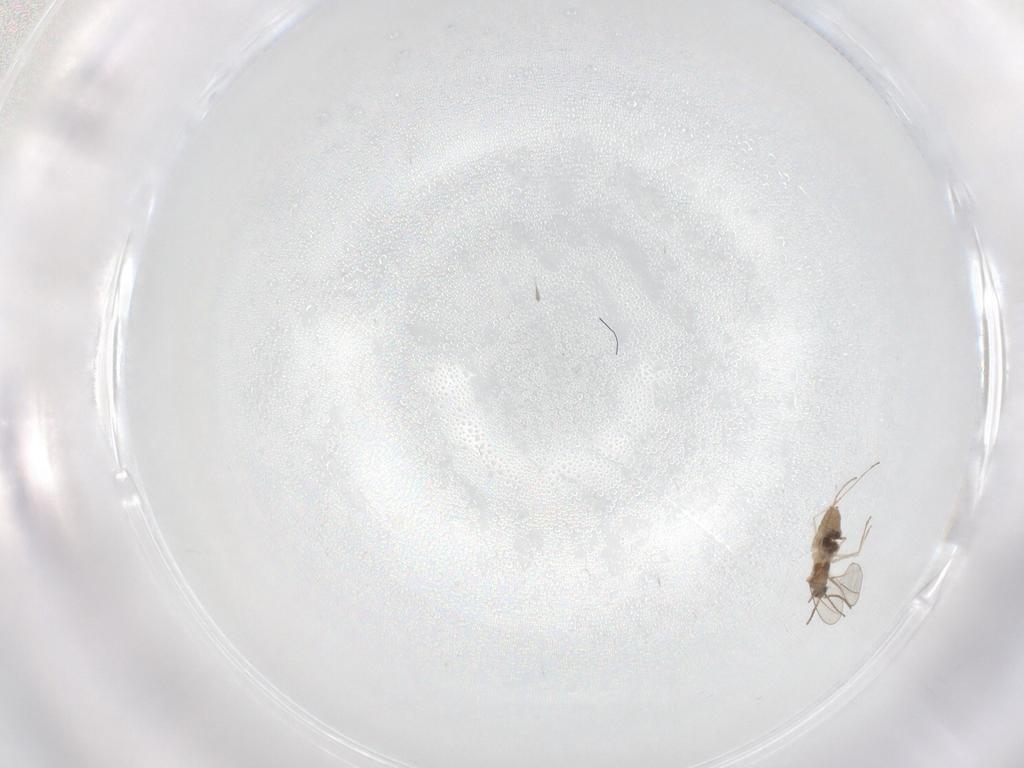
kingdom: Animalia
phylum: Arthropoda
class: Insecta
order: Diptera
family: Cecidomyiidae
